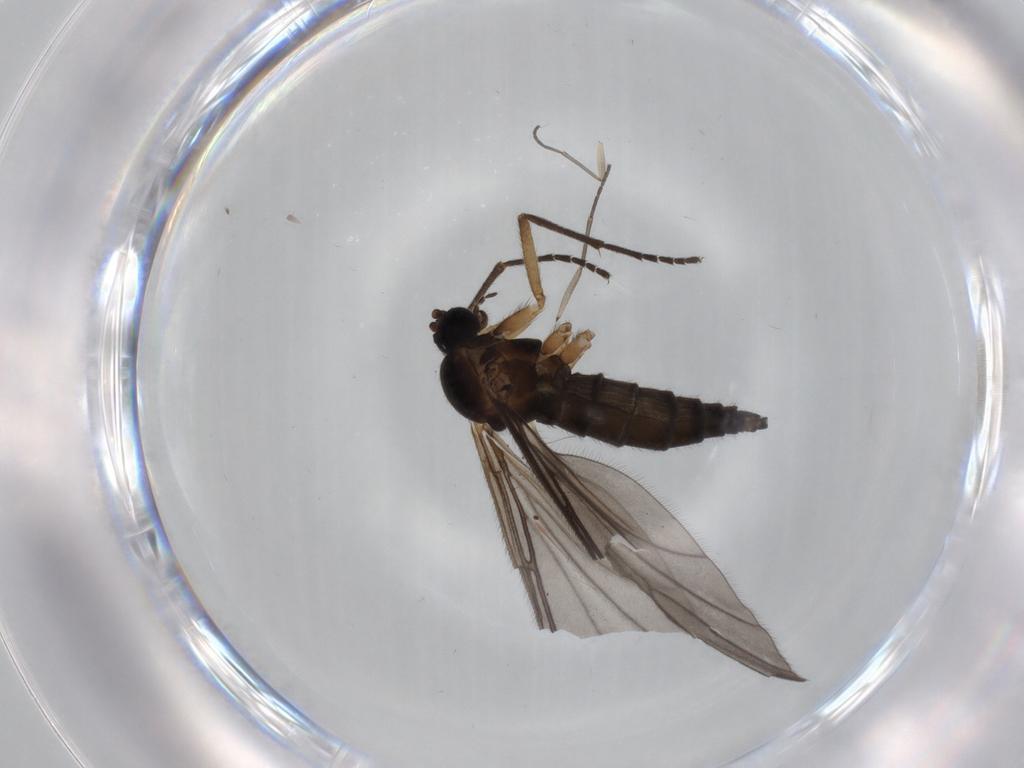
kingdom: Animalia
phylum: Arthropoda
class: Insecta
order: Diptera
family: Sciaridae
